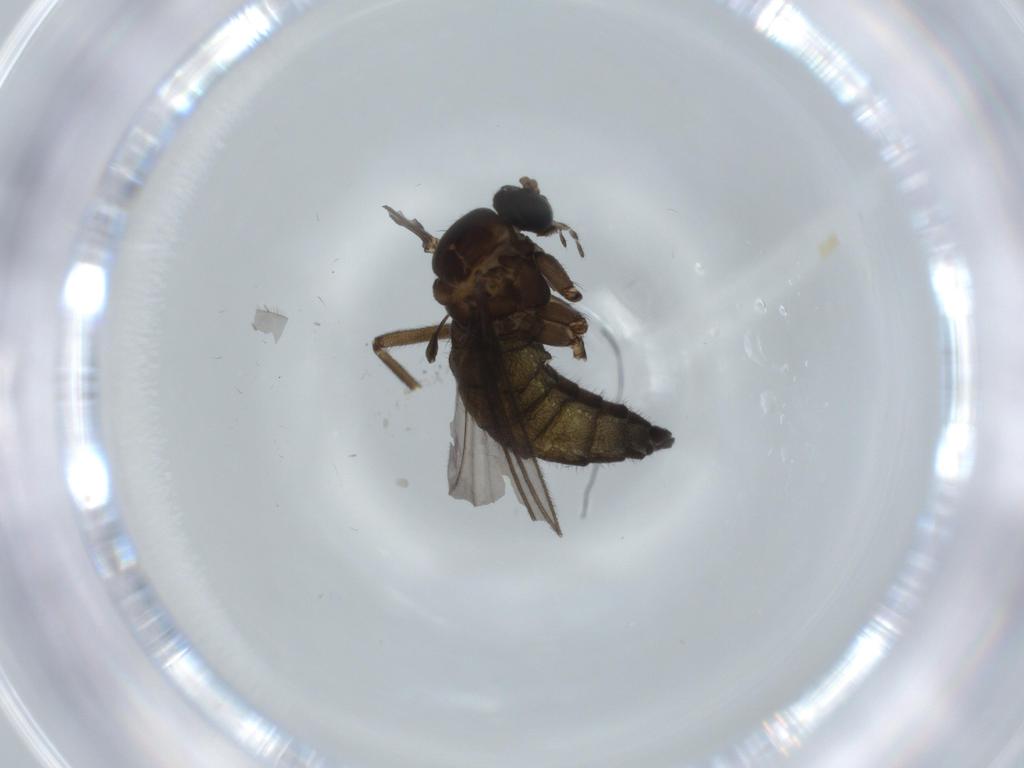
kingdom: Animalia
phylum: Arthropoda
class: Insecta
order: Diptera
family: Sciaridae
